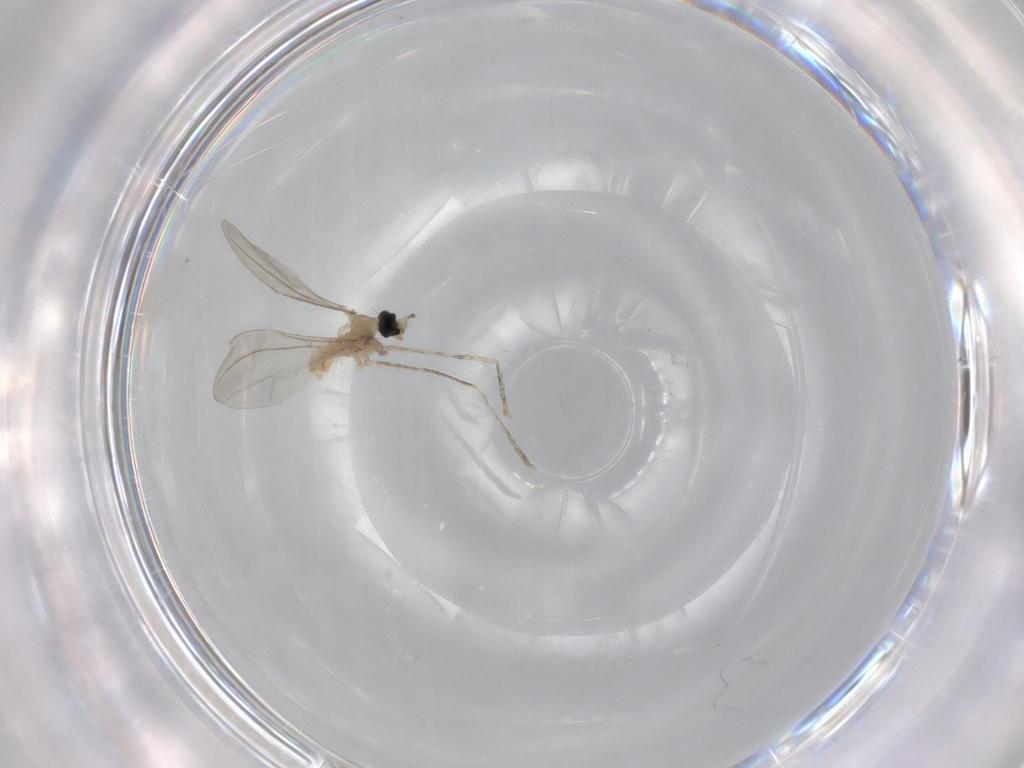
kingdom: Animalia
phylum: Arthropoda
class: Insecta
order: Diptera
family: Cecidomyiidae
